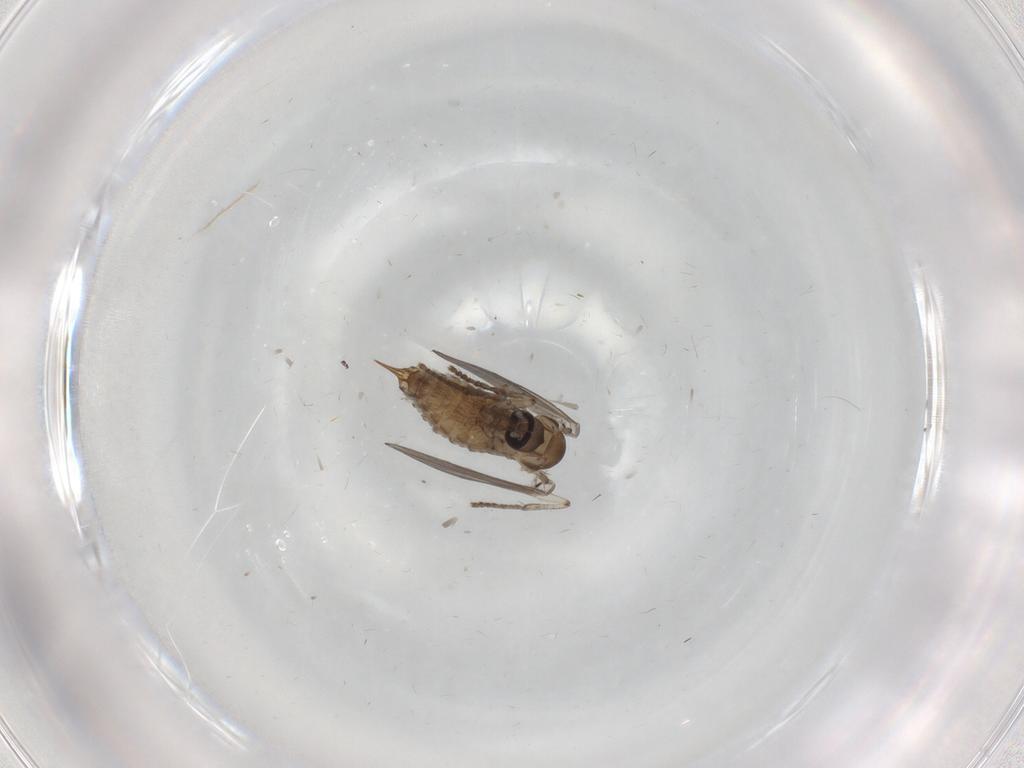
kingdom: Animalia
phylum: Arthropoda
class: Insecta
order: Diptera
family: Psychodidae
